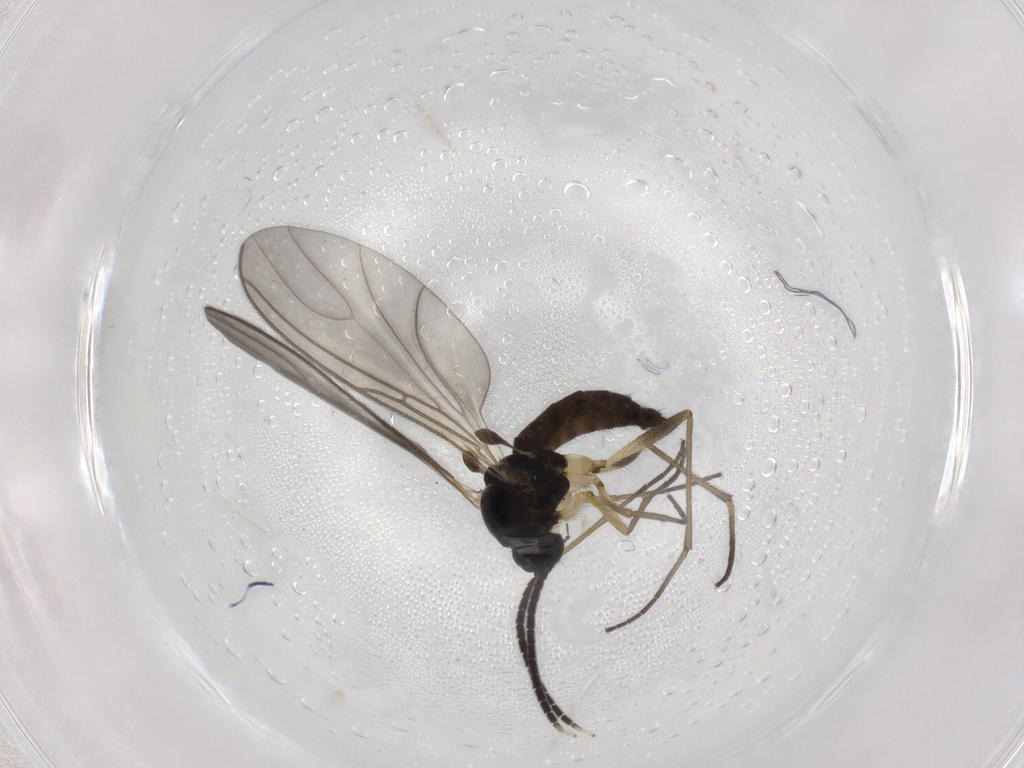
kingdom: Animalia
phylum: Arthropoda
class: Insecta
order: Diptera
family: Sciaridae
